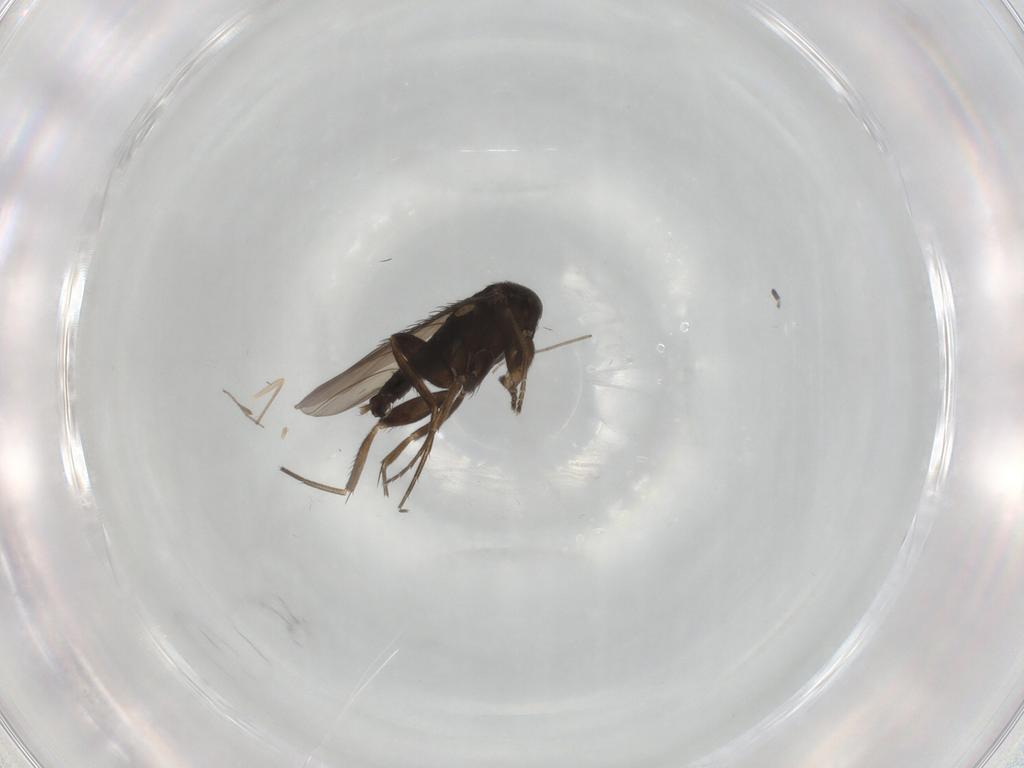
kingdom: Animalia
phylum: Arthropoda
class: Insecta
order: Diptera
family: Phoridae
